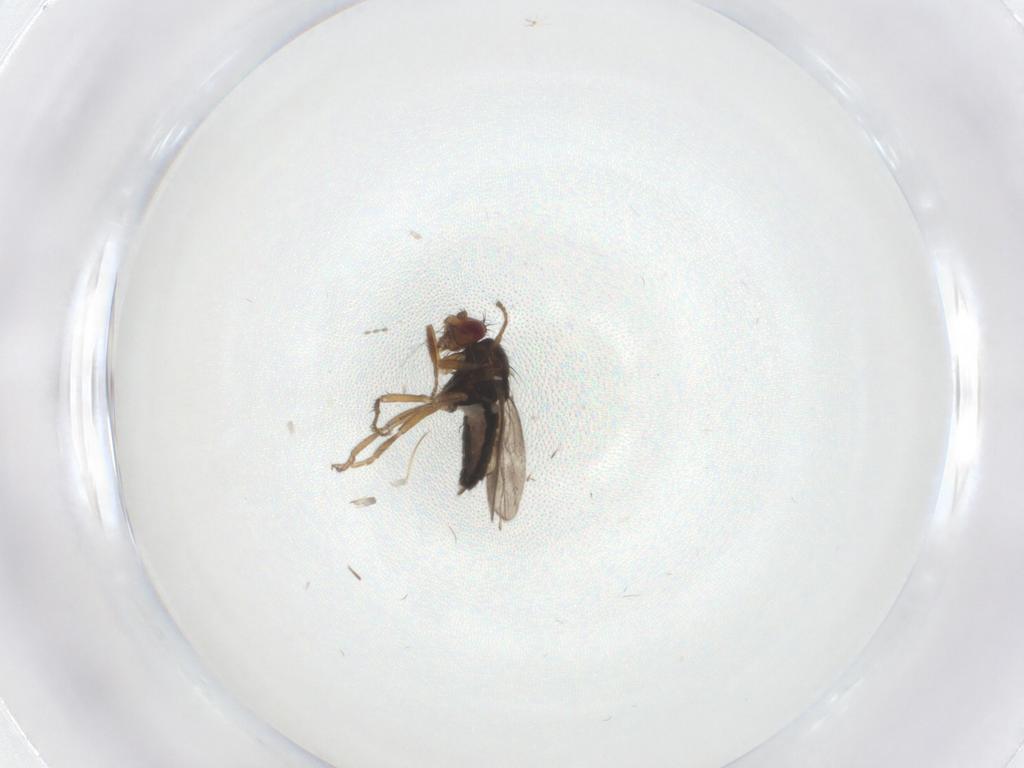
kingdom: Animalia
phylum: Arthropoda
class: Insecta
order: Diptera
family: Sphaeroceridae
